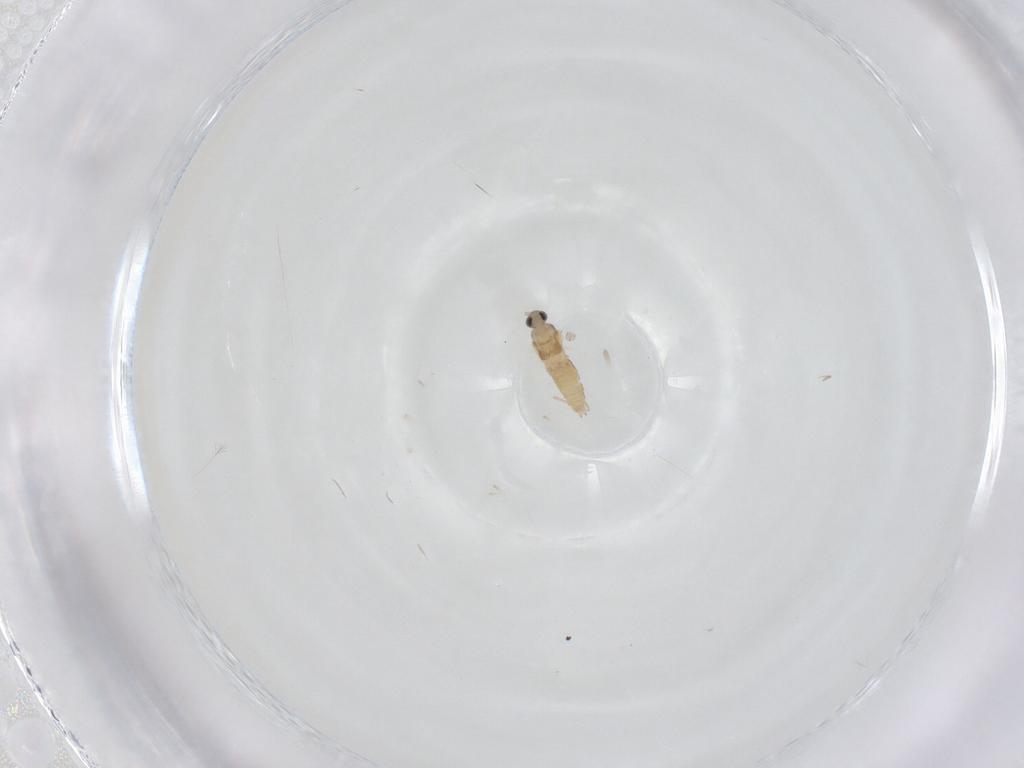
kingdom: Animalia
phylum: Arthropoda
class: Insecta
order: Diptera
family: Cecidomyiidae
